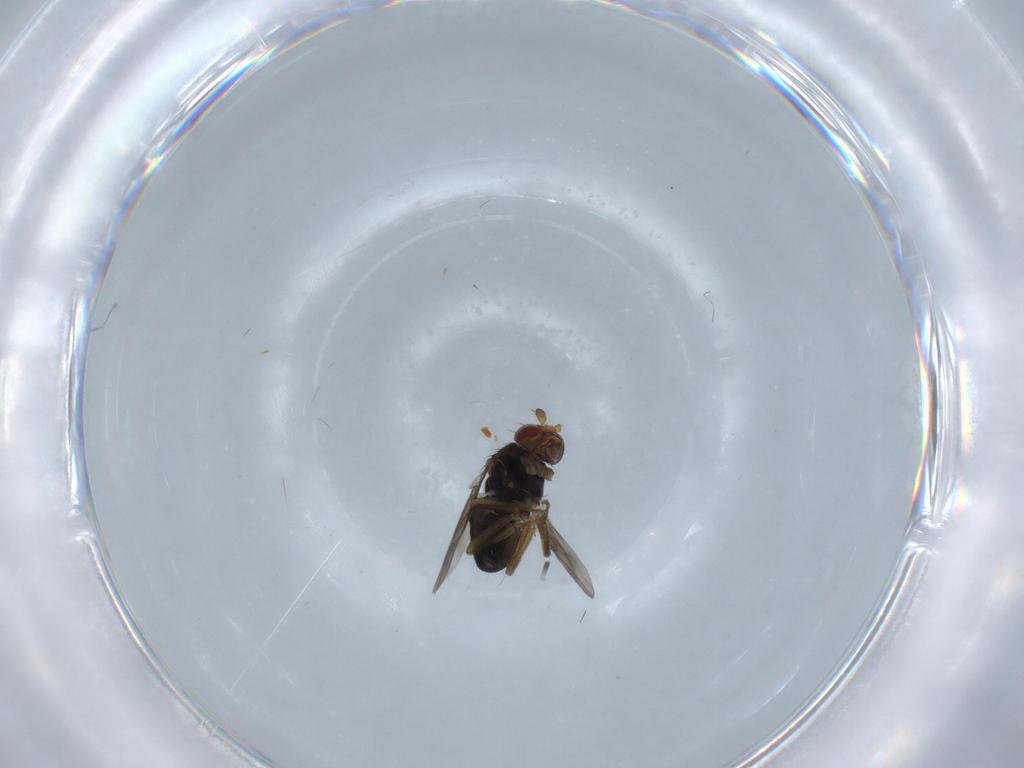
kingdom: Animalia
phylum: Arthropoda
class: Insecta
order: Diptera
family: Sphaeroceridae
